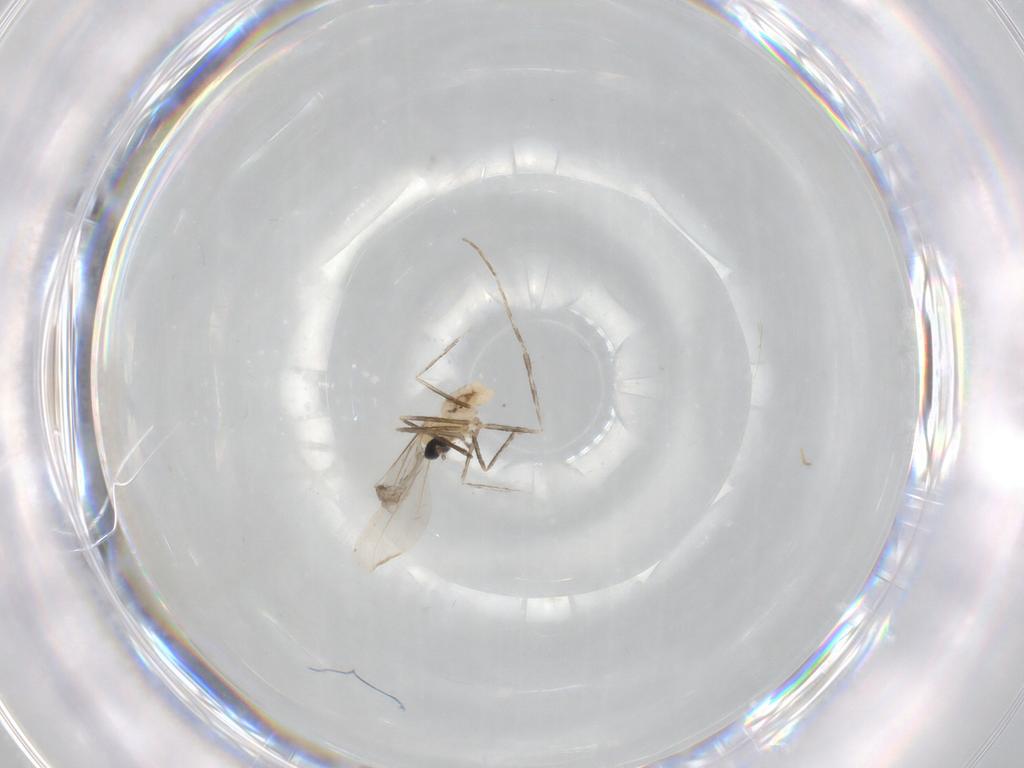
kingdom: Animalia
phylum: Arthropoda
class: Insecta
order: Diptera
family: Cecidomyiidae
